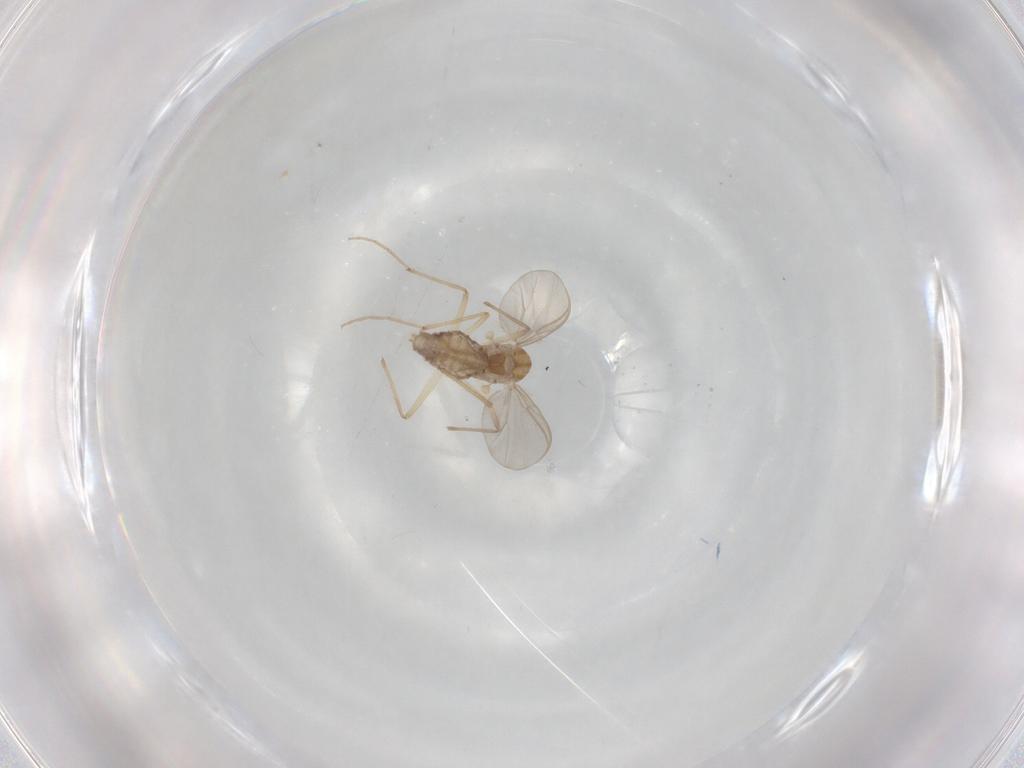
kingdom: Animalia
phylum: Arthropoda
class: Insecta
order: Diptera
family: Chironomidae
